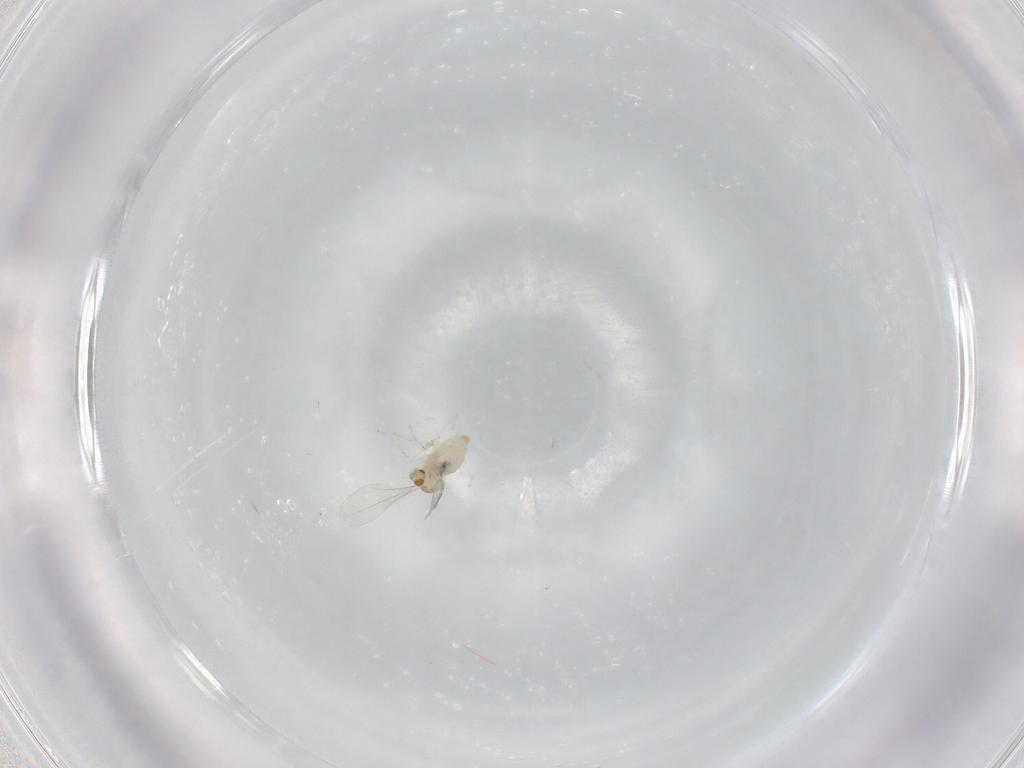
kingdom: Animalia
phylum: Arthropoda
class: Insecta
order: Diptera
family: Cecidomyiidae
